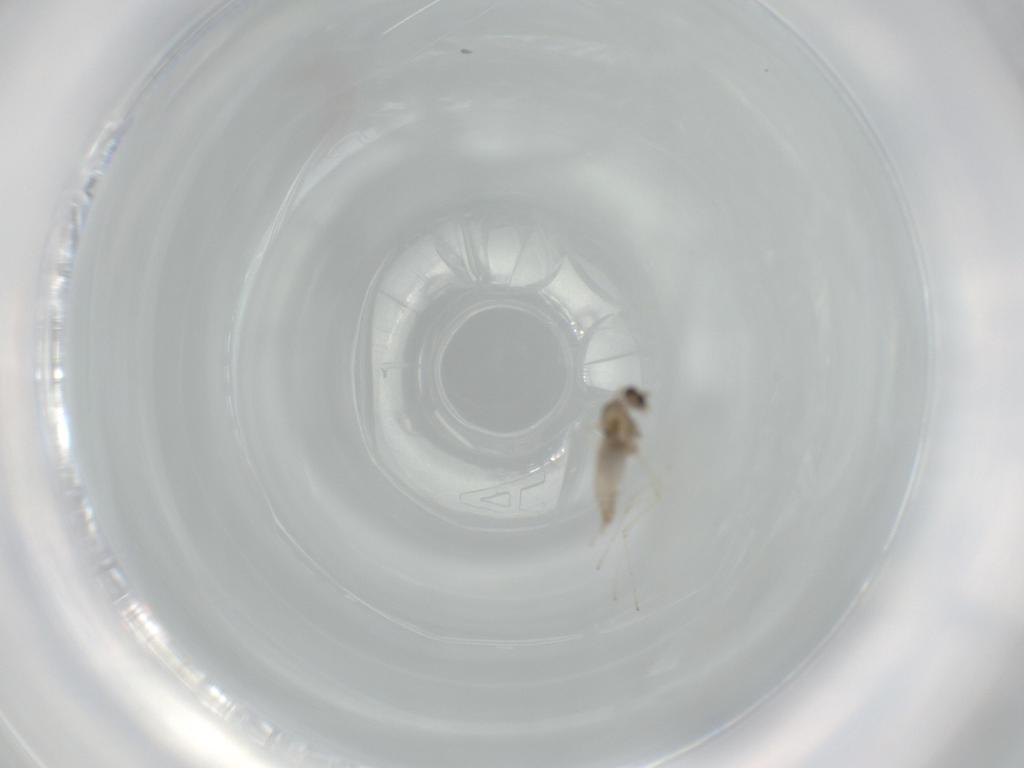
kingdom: Animalia
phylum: Arthropoda
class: Insecta
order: Diptera
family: Cecidomyiidae
